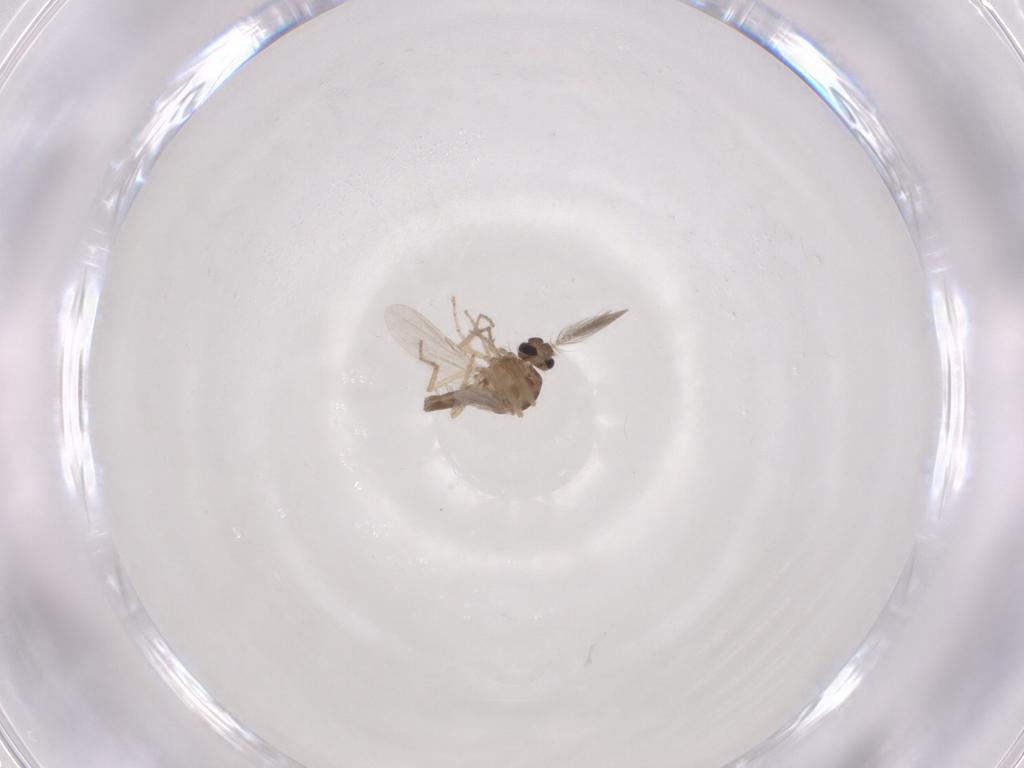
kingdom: Animalia
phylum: Arthropoda
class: Insecta
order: Diptera
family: Ceratopogonidae
